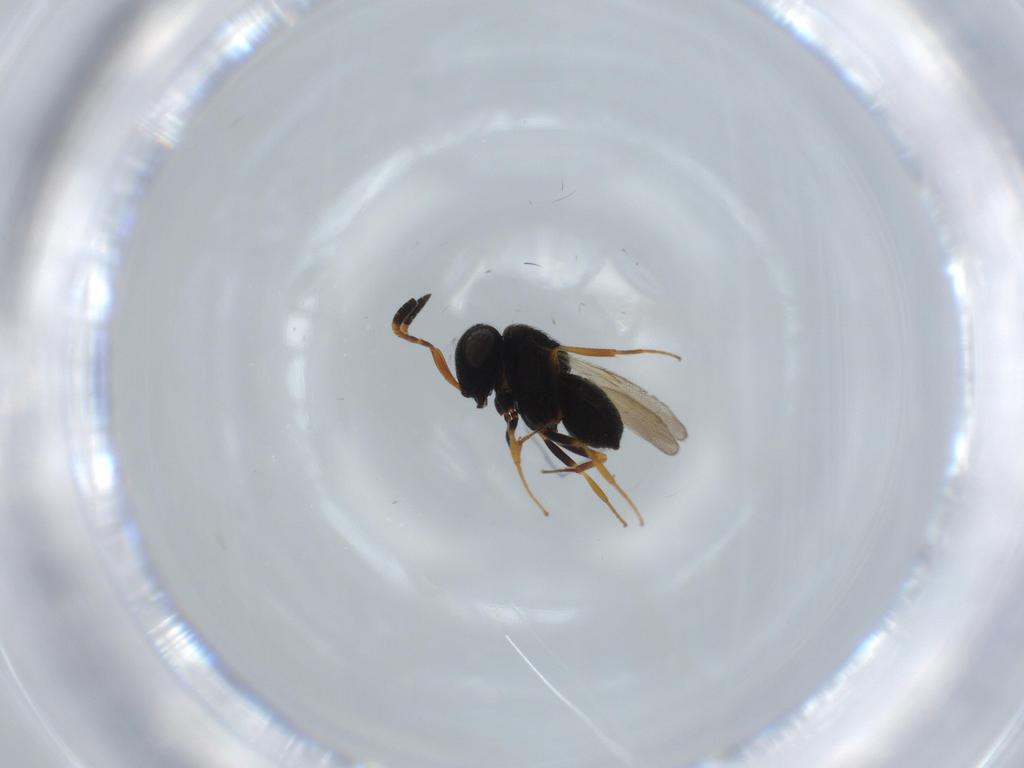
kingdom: Animalia
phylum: Arthropoda
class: Insecta
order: Hymenoptera
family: Scelionidae
